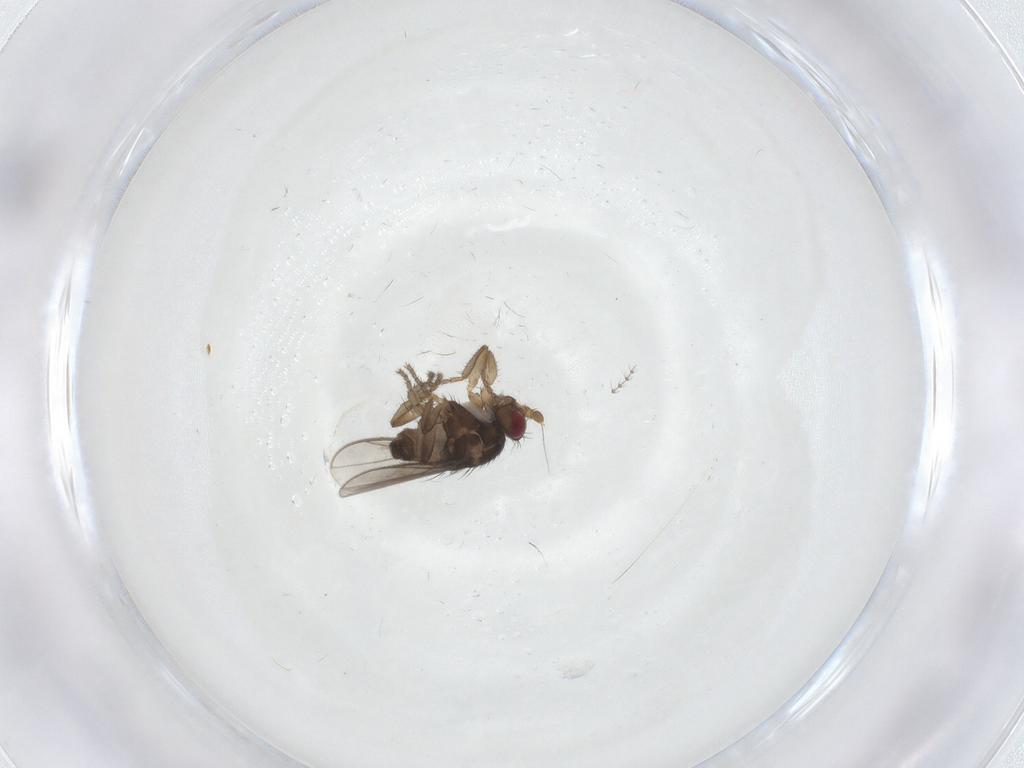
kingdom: Animalia
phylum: Arthropoda
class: Insecta
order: Diptera
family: Sphaeroceridae
